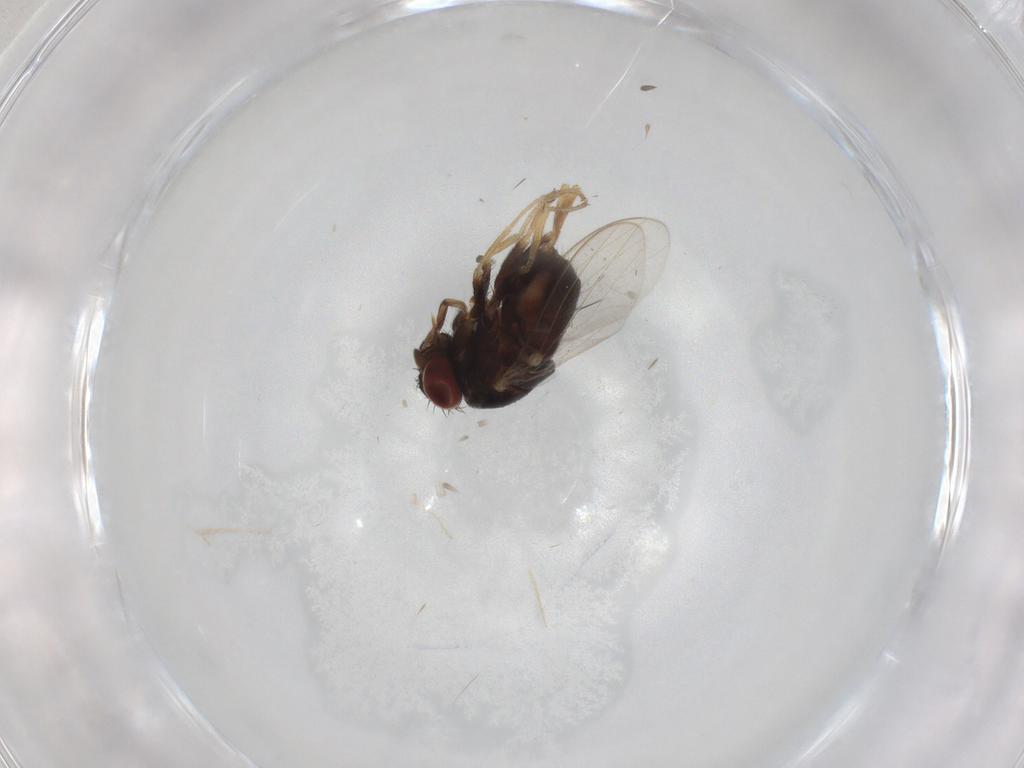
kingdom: Animalia
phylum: Arthropoda
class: Insecta
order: Diptera
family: Milichiidae
